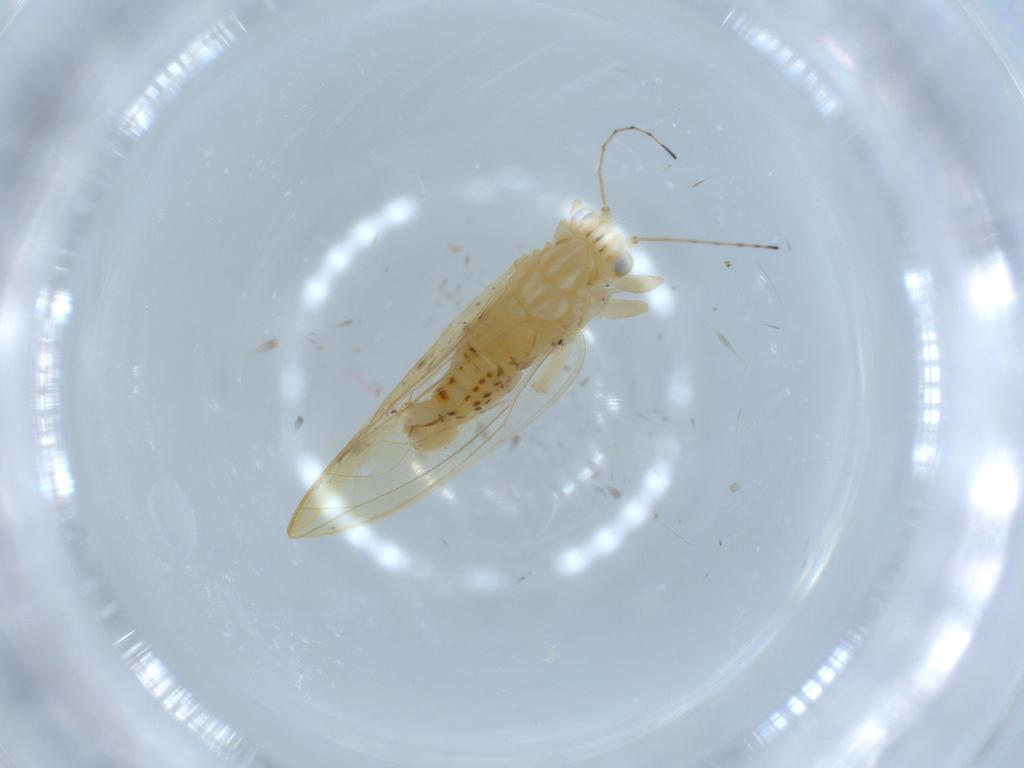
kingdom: Animalia
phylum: Arthropoda
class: Insecta
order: Hemiptera
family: Triozidae
